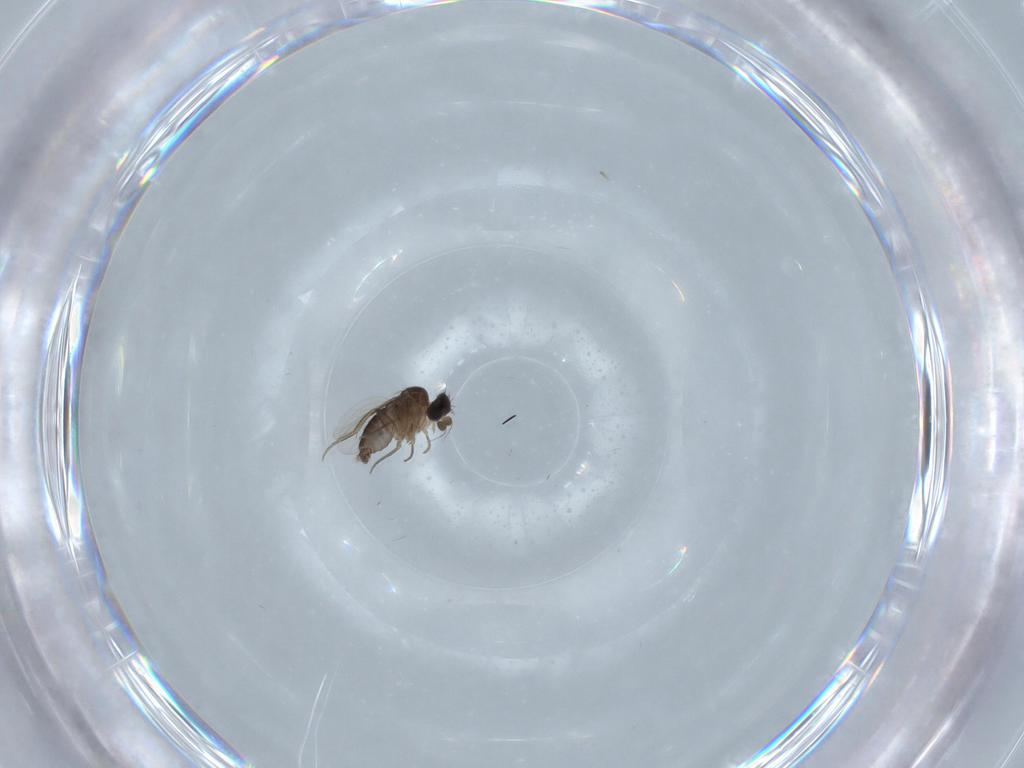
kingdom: Animalia
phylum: Arthropoda
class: Insecta
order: Diptera
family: Phoridae
